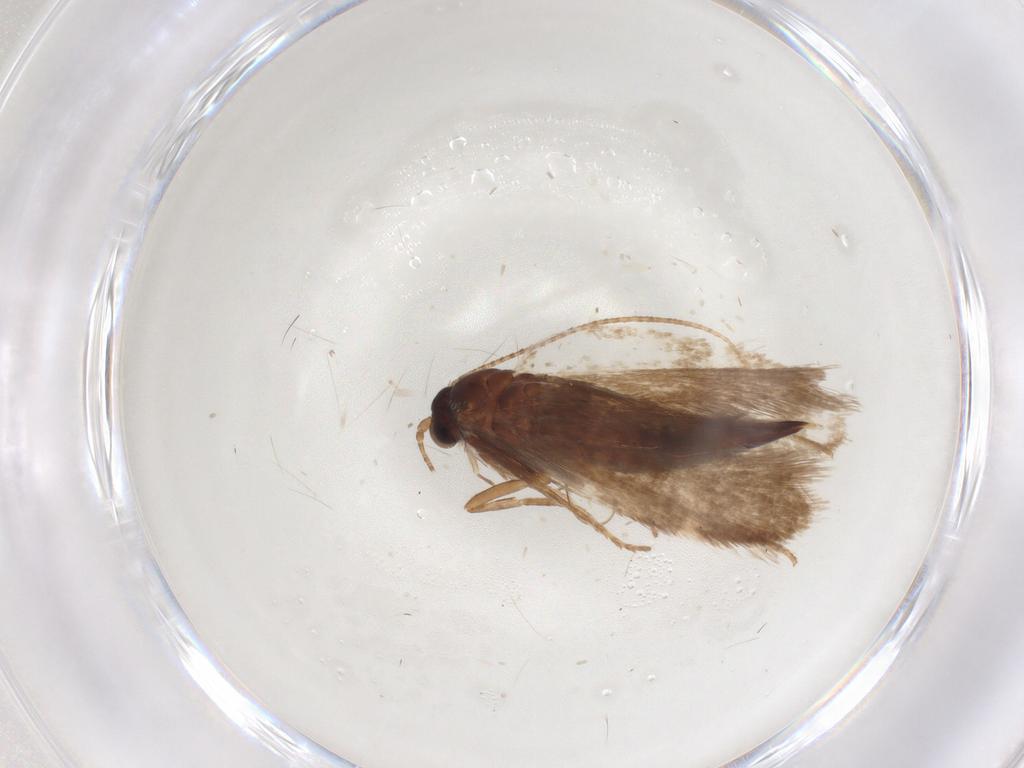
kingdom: Animalia
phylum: Arthropoda
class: Insecta
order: Lepidoptera
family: Adelidae
